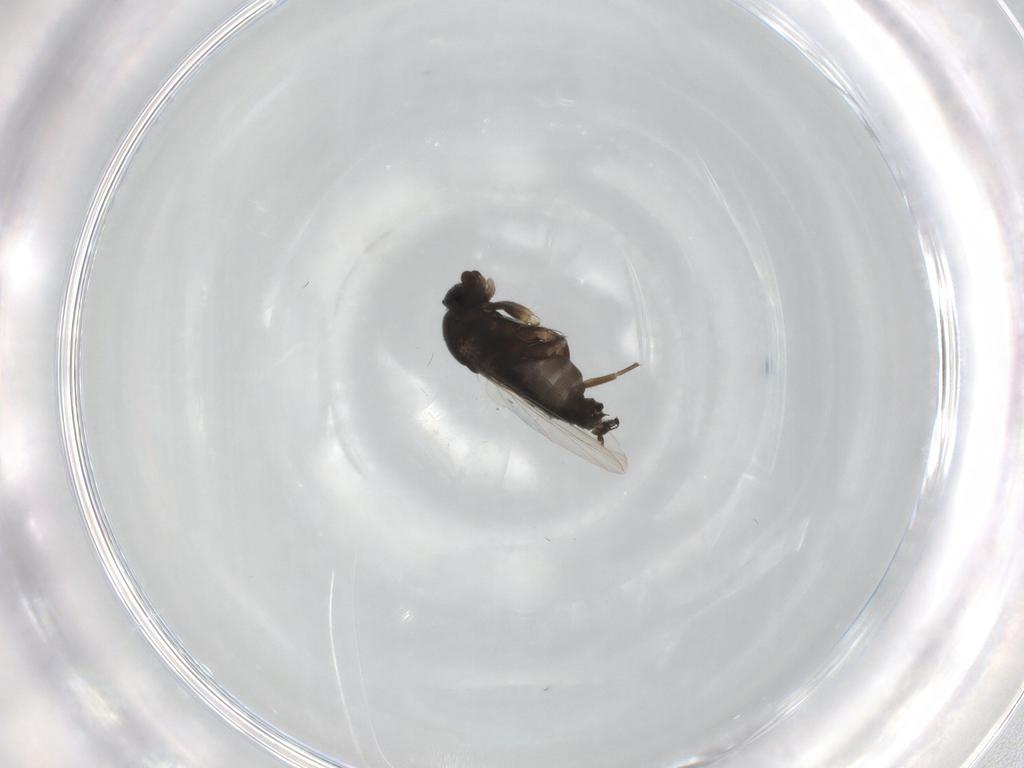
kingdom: Animalia
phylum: Arthropoda
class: Insecta
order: Diptera
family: Phoridae
